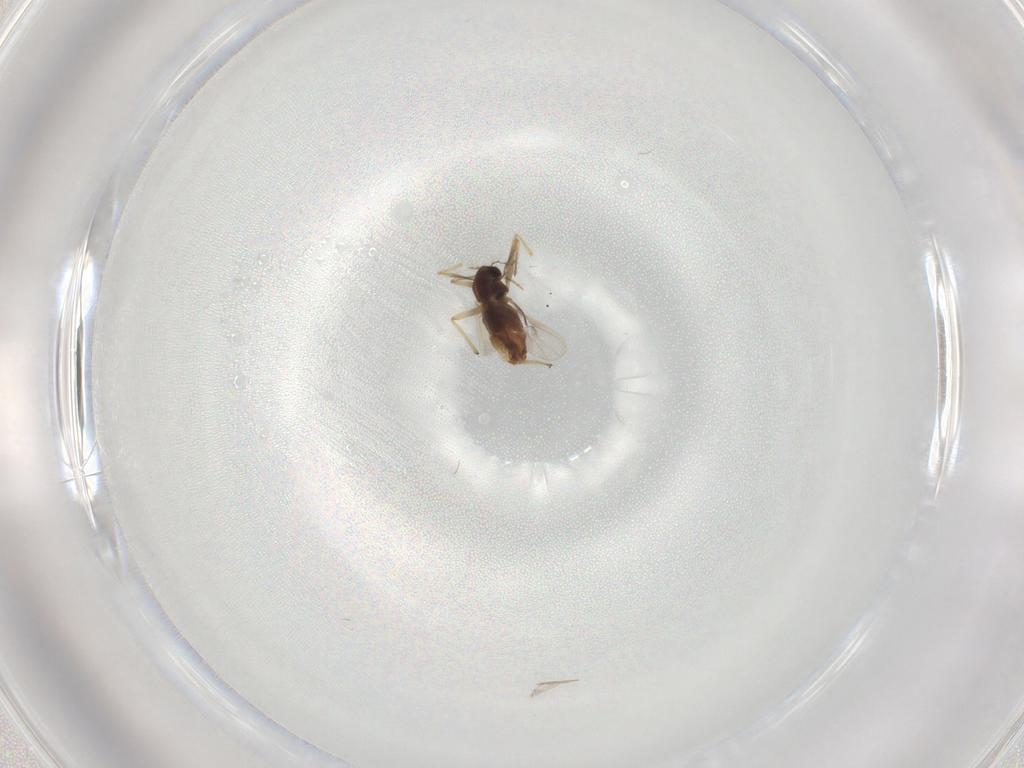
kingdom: Animalia
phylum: Arthropoda
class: Insecta
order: Diptera
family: Chironomidae
